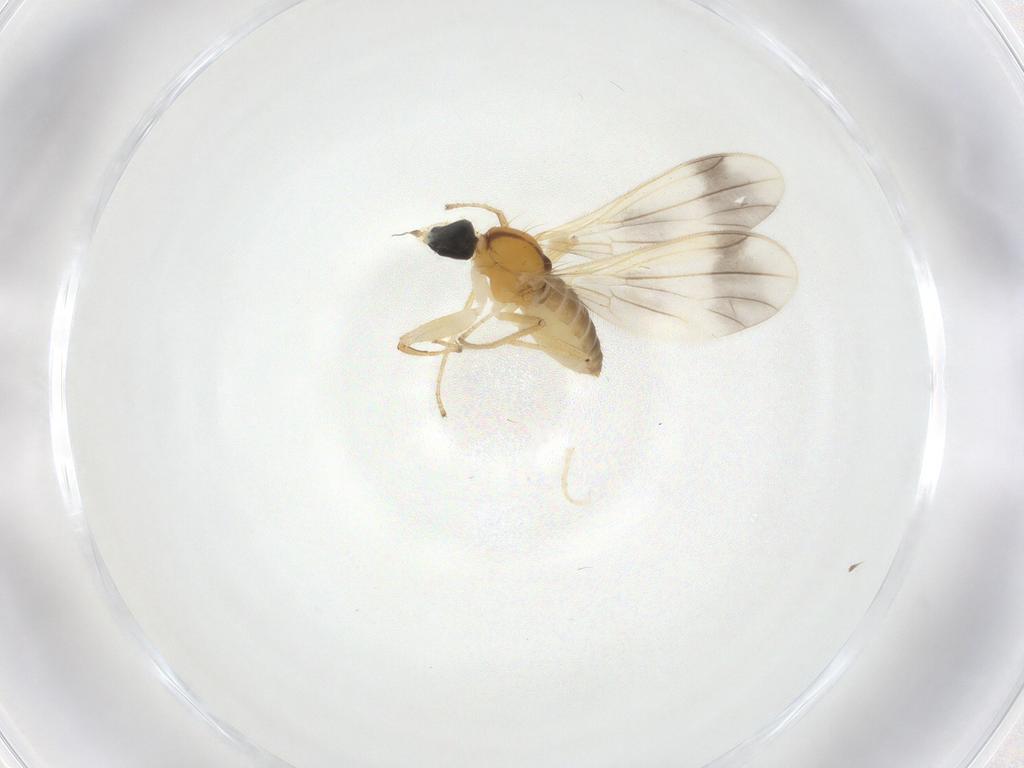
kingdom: Animalia
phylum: Arthropoda
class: Insecta
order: Diptera
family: Empididae
